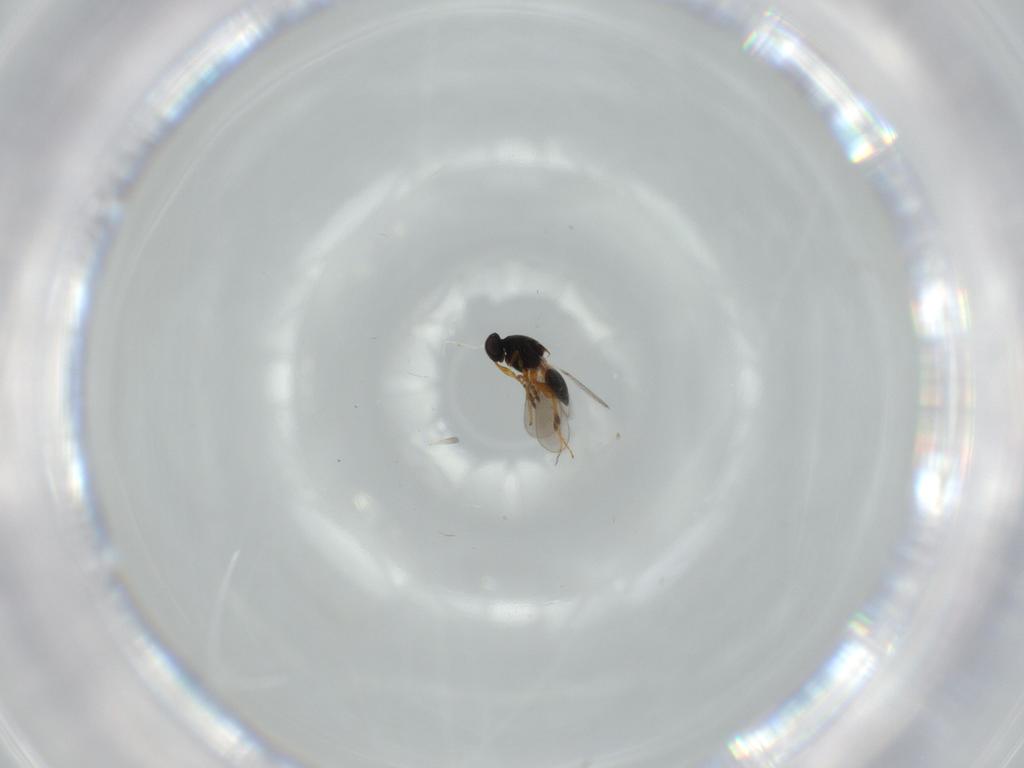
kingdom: Animalia
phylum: Arthropoda
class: Insecta
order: Hymenoptera
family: Platygastridae
